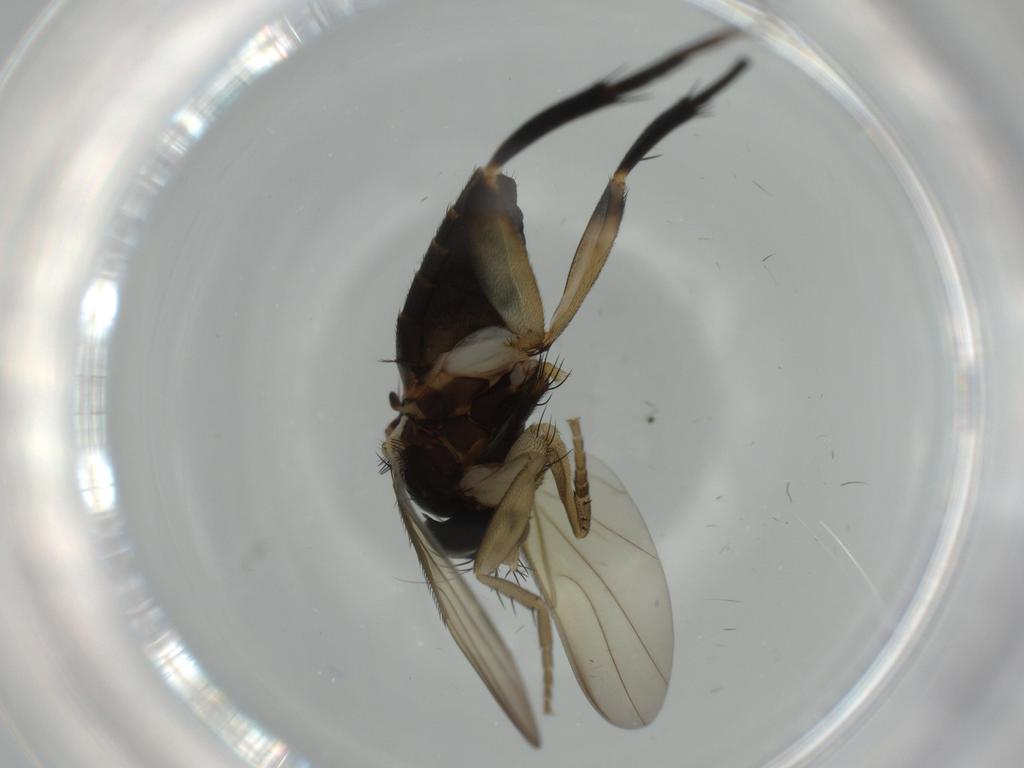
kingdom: Animalia
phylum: Arthropoda
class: Insecta
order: Diptera
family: Phoridae
